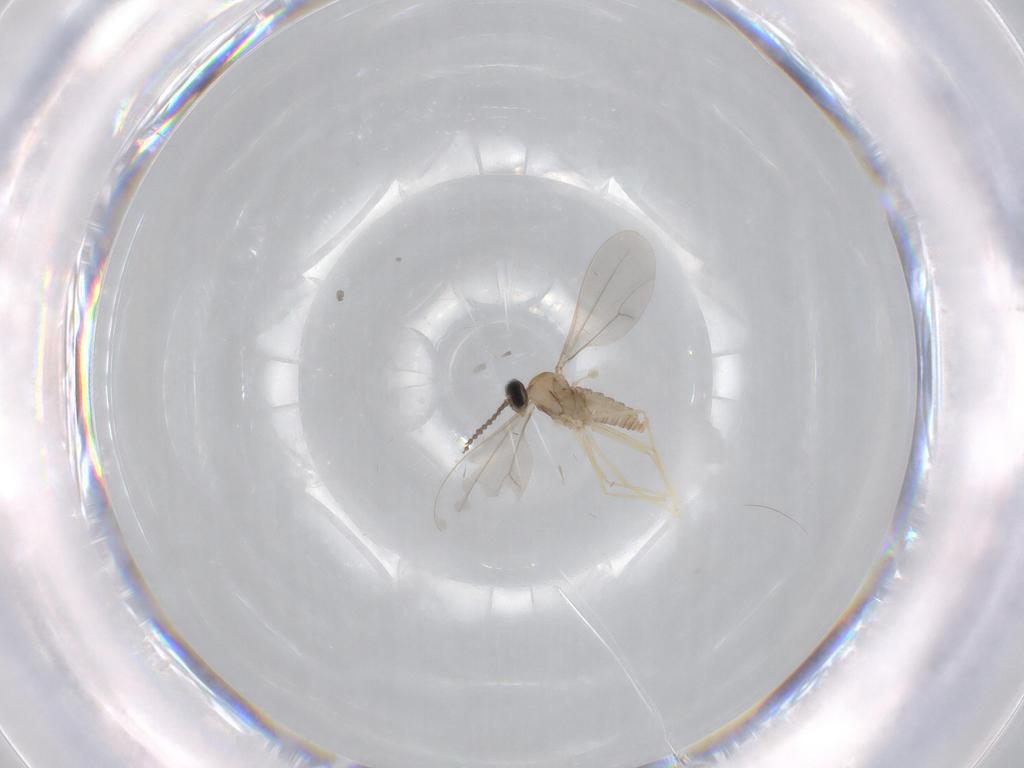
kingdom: Animalia
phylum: Arthropoda
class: Insecta
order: Diptera
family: Cecidomyiidae
